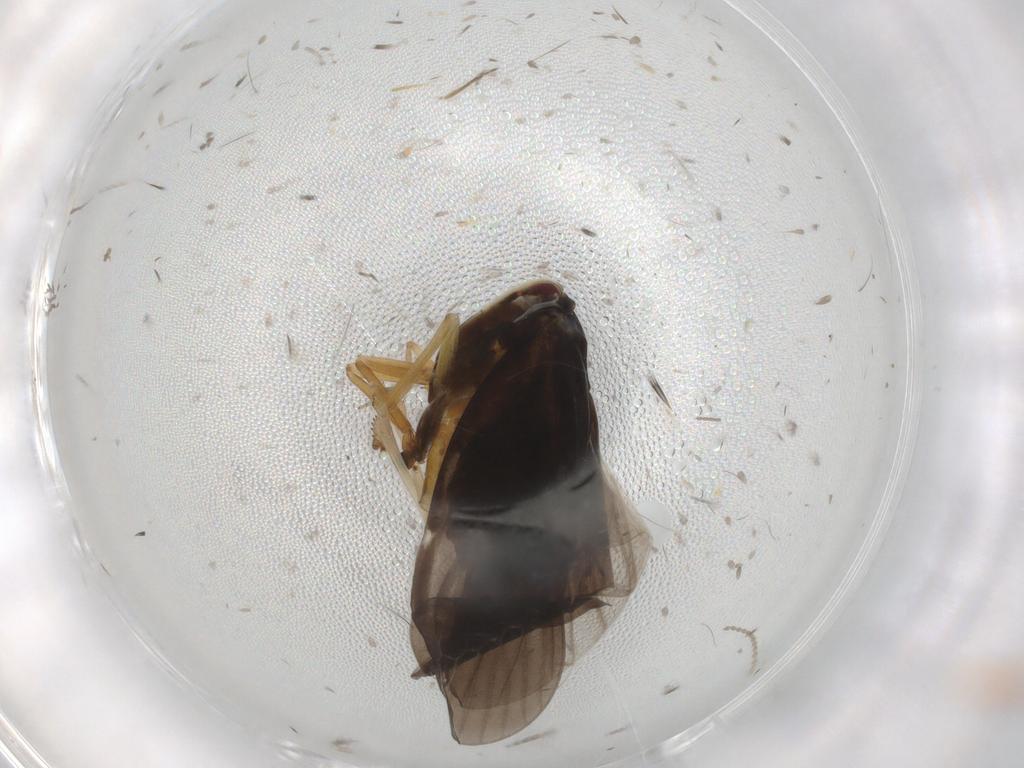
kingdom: Animalia
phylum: Arthropoda
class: Insecta
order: Hemiptera
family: Derbidae
